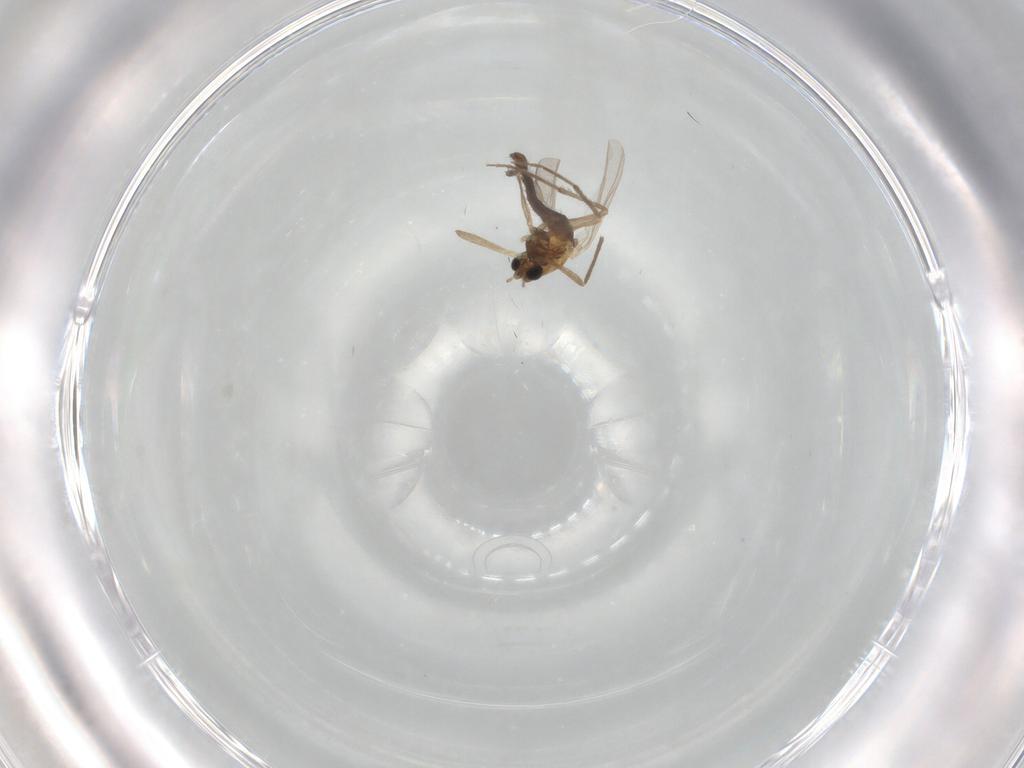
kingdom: Animalia
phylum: Arthropoda
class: Insecta
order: Diptera
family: Chironomidae
